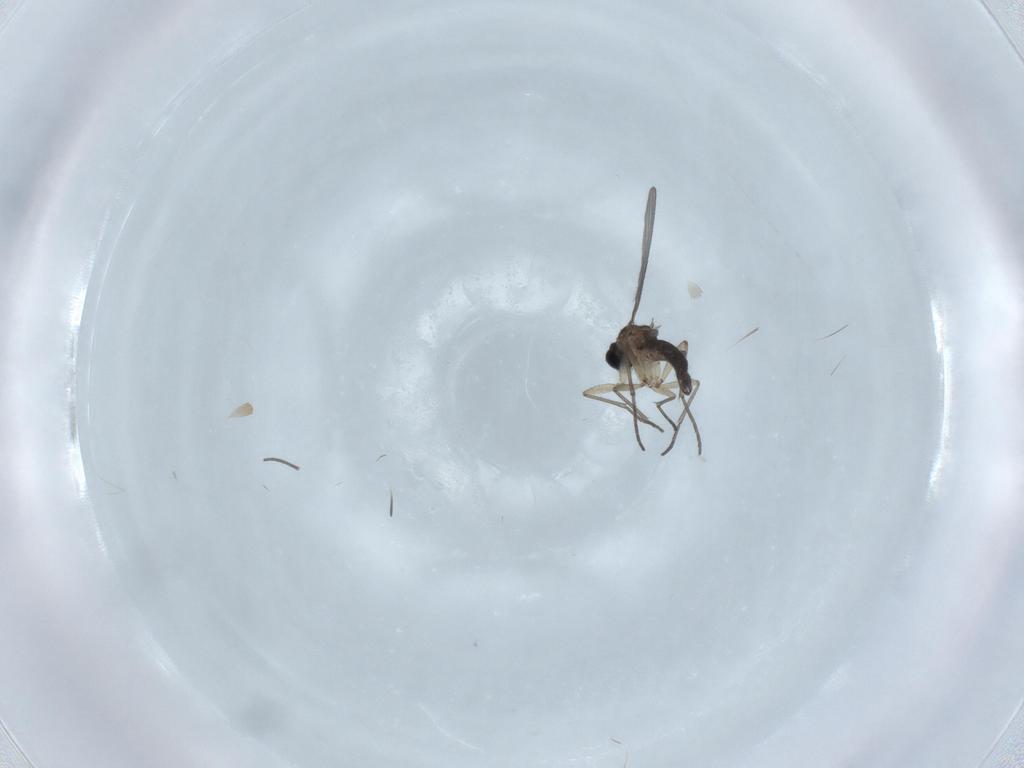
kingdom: Animalia
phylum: Arthropoda
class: Insecta
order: Diptera
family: Sciaridae
